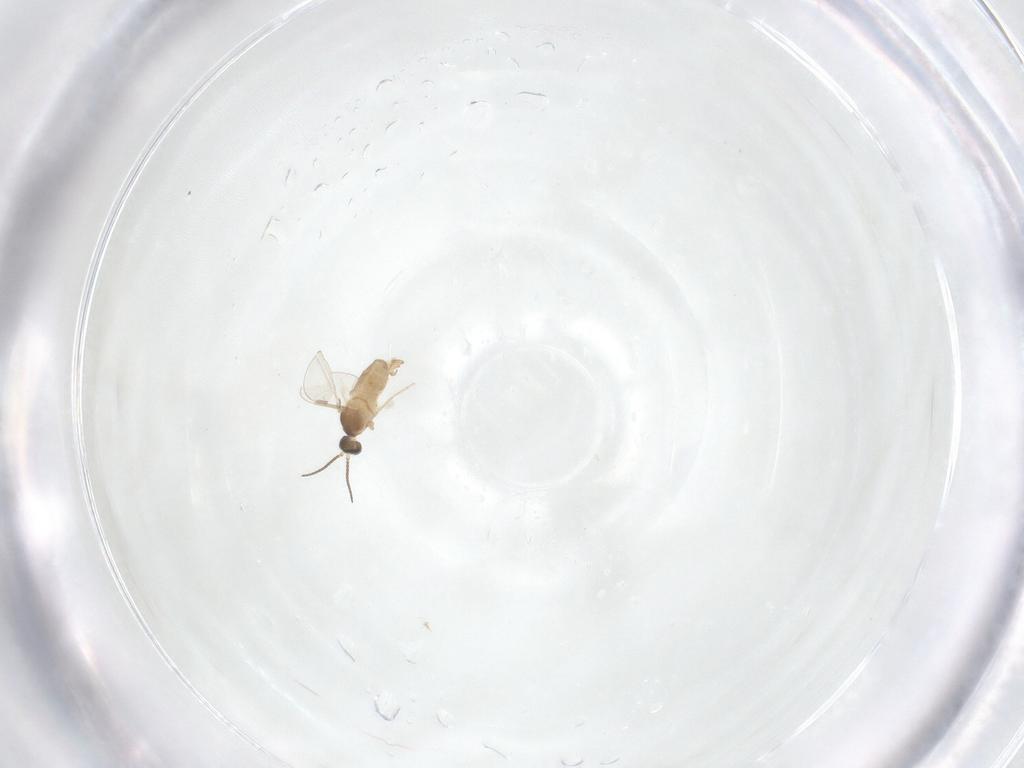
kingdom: Animalia
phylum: Arthropoda
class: Insecta
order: Diptera
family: Cecidomyiidae
